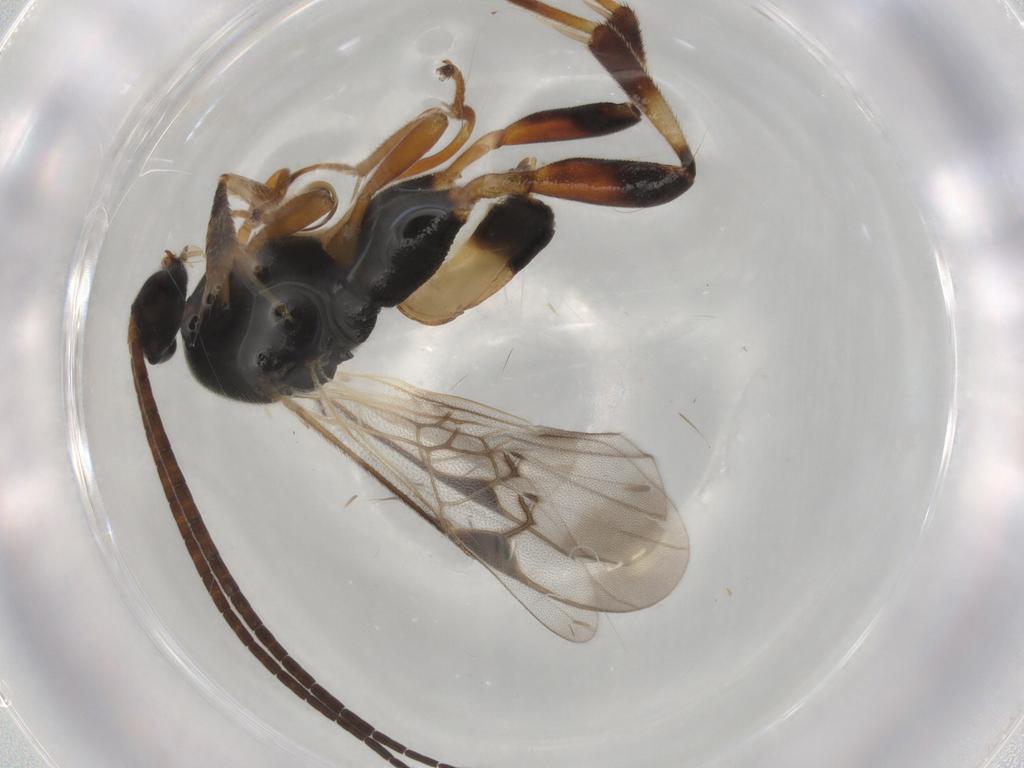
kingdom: Animalia
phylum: Arthropoda
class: Insecta
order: Hymenoptera
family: Braconidae
